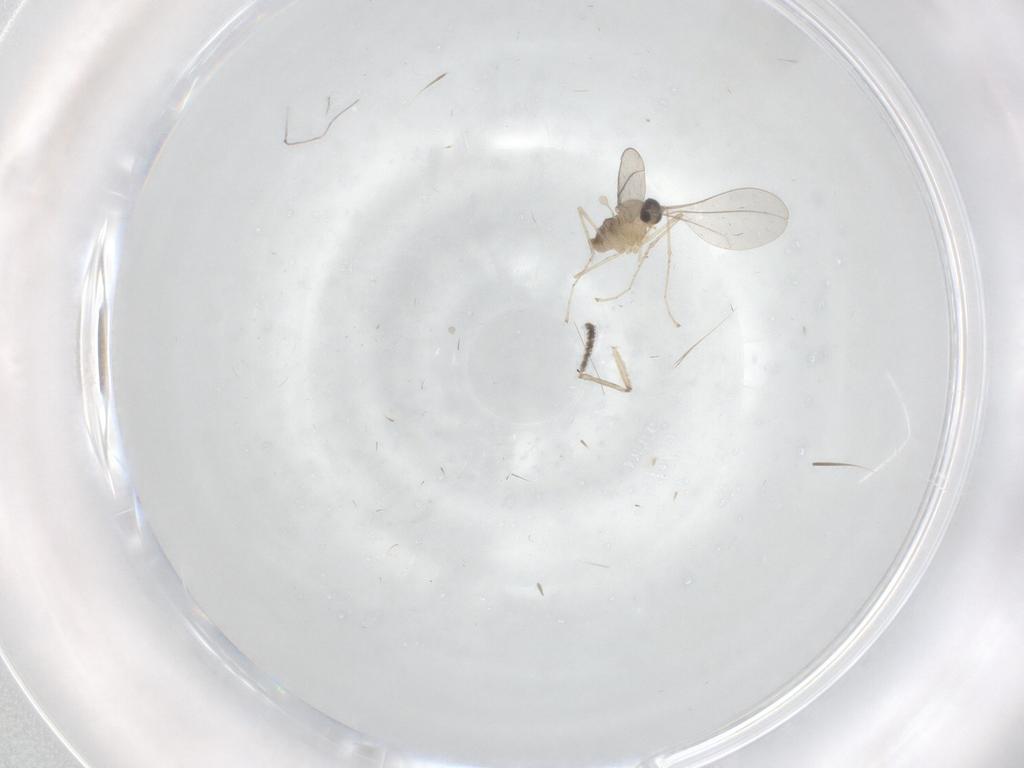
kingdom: Animalia
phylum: Arthropoda
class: Insecta
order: Diptera
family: Cecidomyiidae
